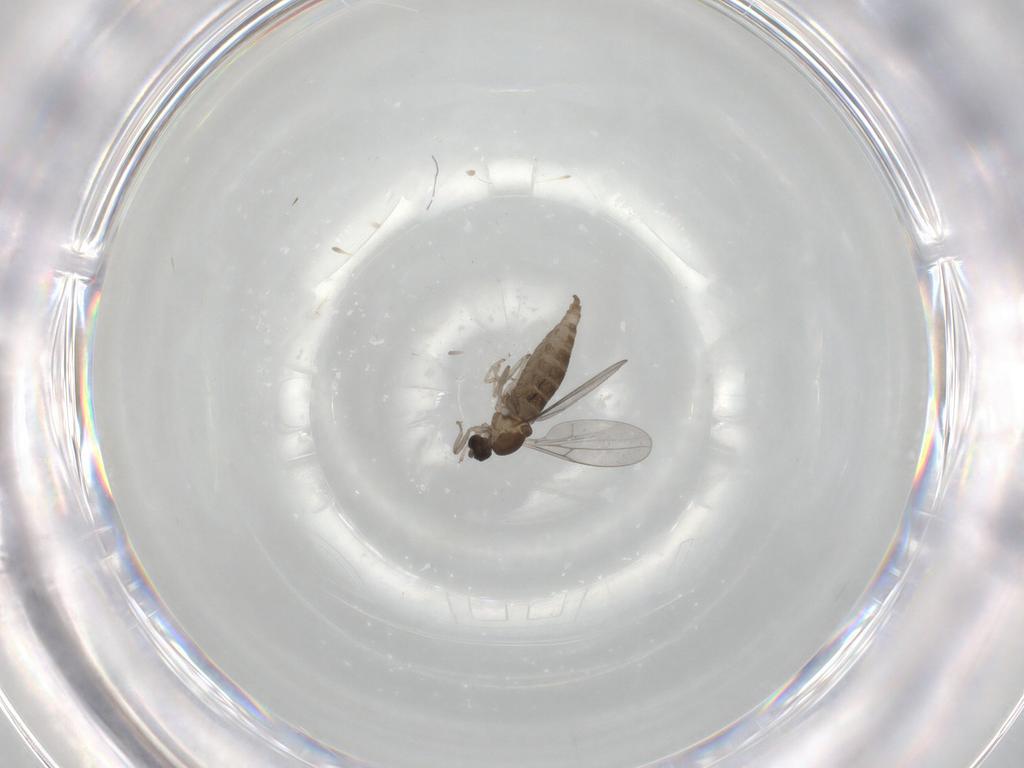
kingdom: Animalia
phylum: Arthropoda
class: Insecta
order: Diptera
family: Cecidomyiidae
